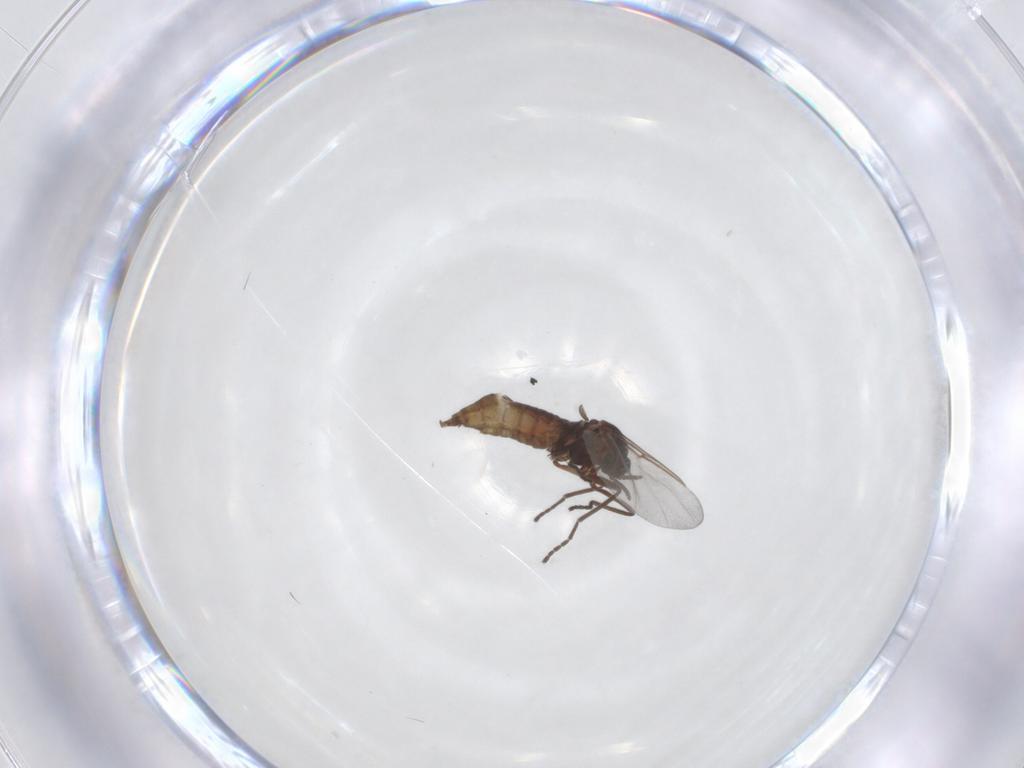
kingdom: Animalia
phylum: Arthropoda
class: Insecta
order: Diptera
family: Cecidomyiidae
